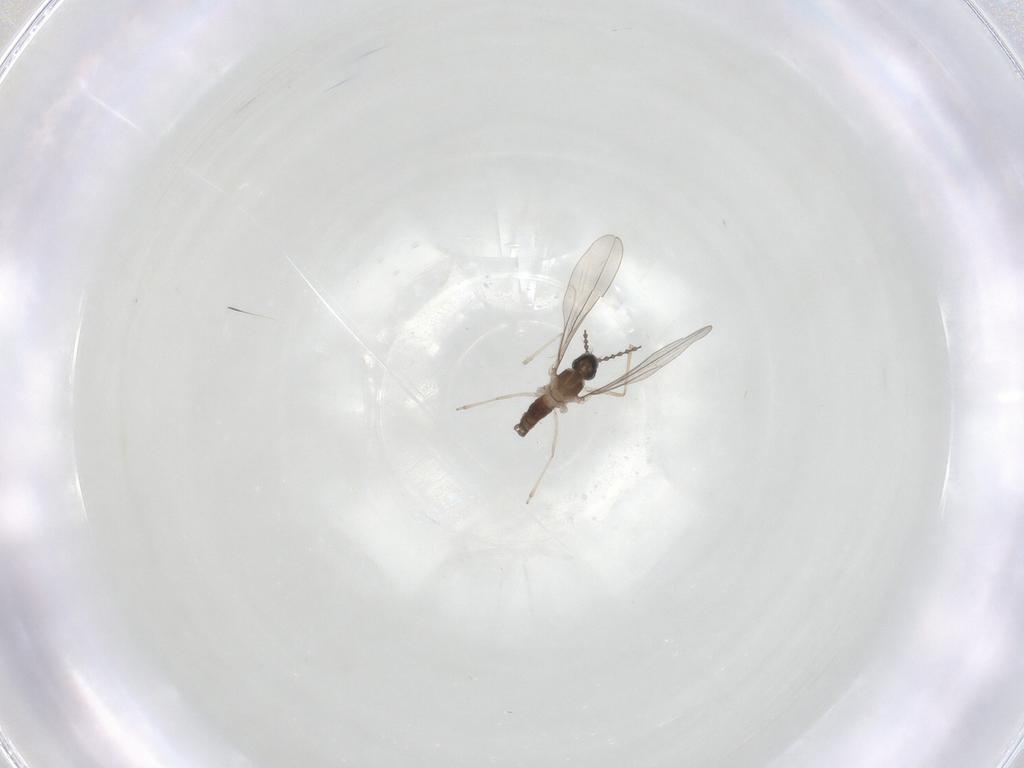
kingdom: Animalia
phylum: Arthropoda
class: Insecta
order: Diptera
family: Cecidomyiidae
